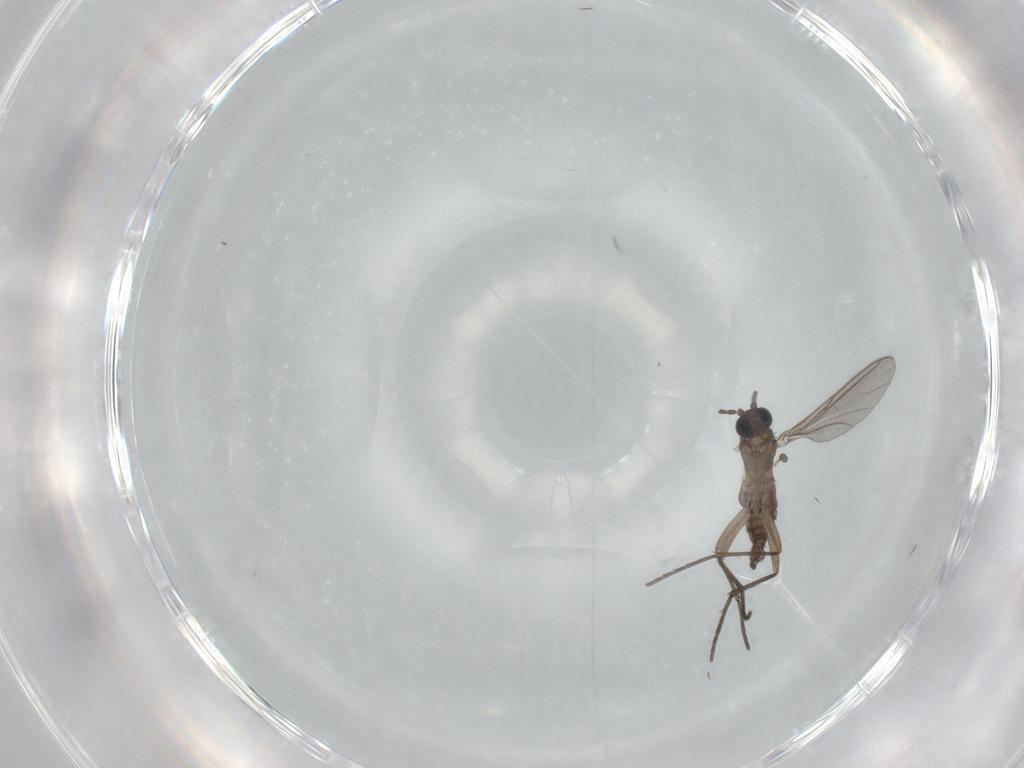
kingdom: Animalia
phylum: Arthropoda
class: Insecta
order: Diptera
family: Sciaridae
